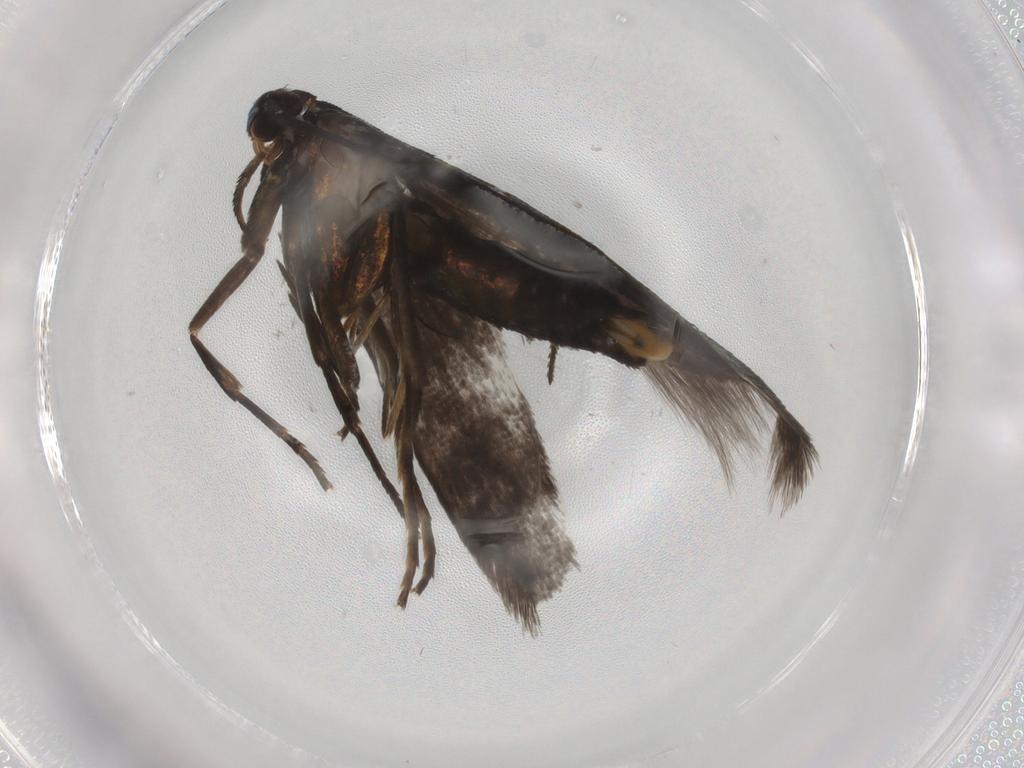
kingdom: Animalia
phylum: Arthropoda
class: Insecta
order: Lepidoptera
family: Argyresthiidae
